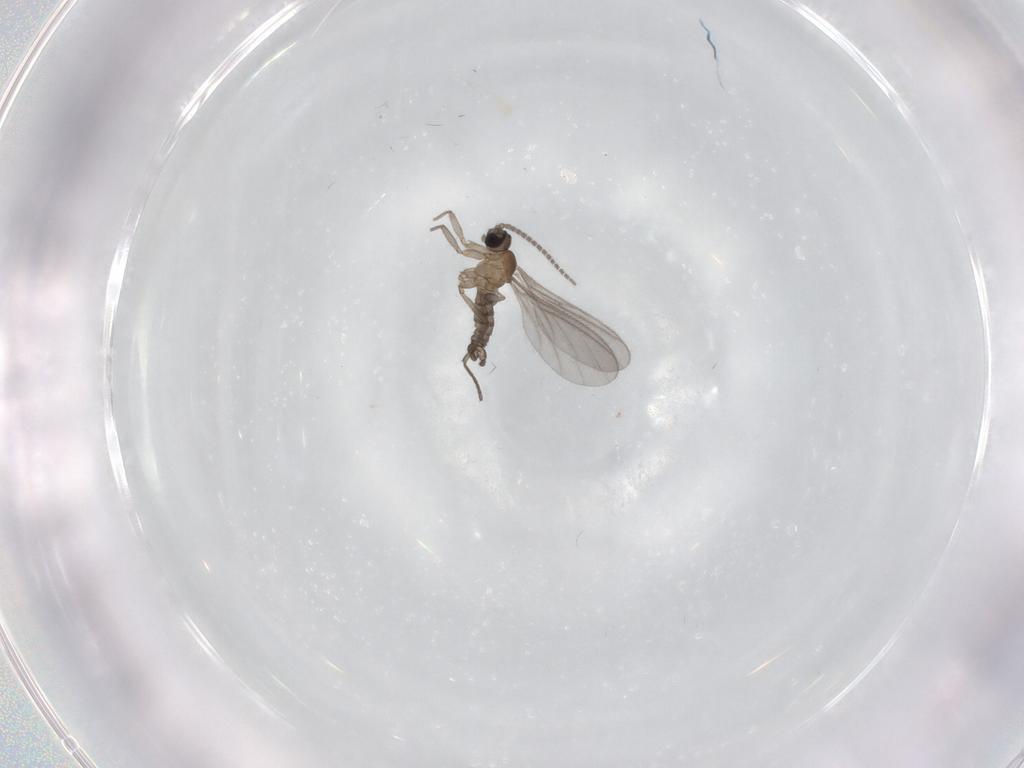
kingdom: Animalia
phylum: Arthropoda
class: Insecta
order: Diptera
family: Sciaridae
